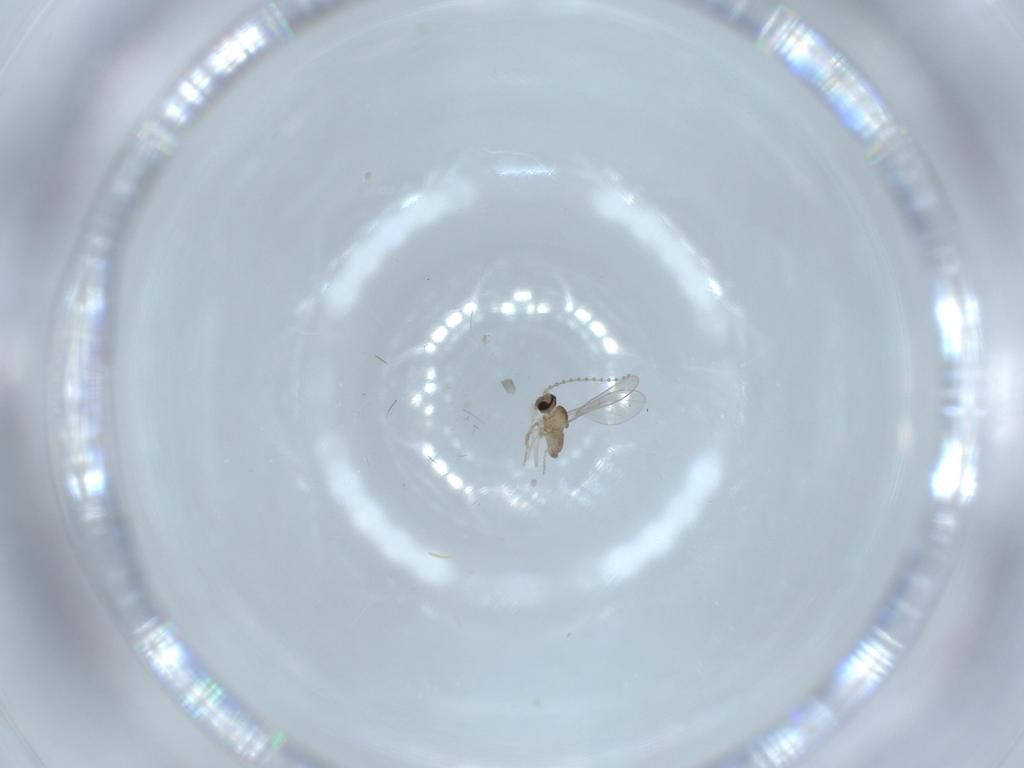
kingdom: Animalia
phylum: Arthropoda
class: Insecta
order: Diptera
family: Cecidomyiidae
